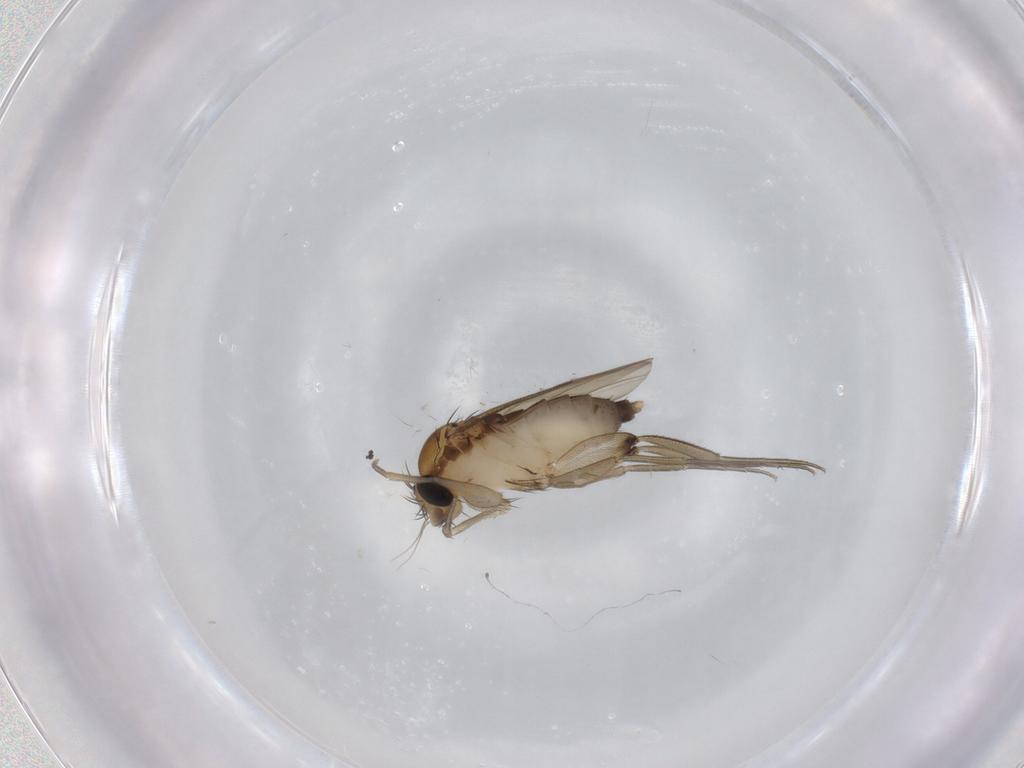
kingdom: Animalia
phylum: Arthropoda
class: Insecta
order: Diptera
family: Phoridae
